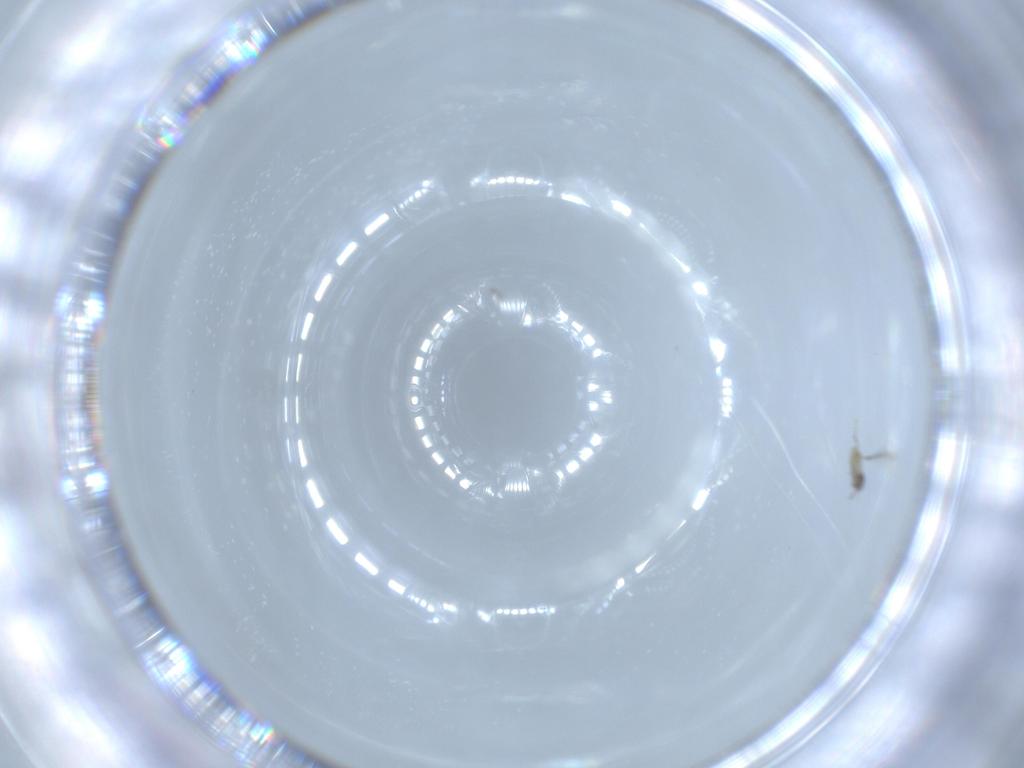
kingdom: Animalia
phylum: Arthropoda
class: Insecta
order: Hymenoptera
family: Mymaridae
